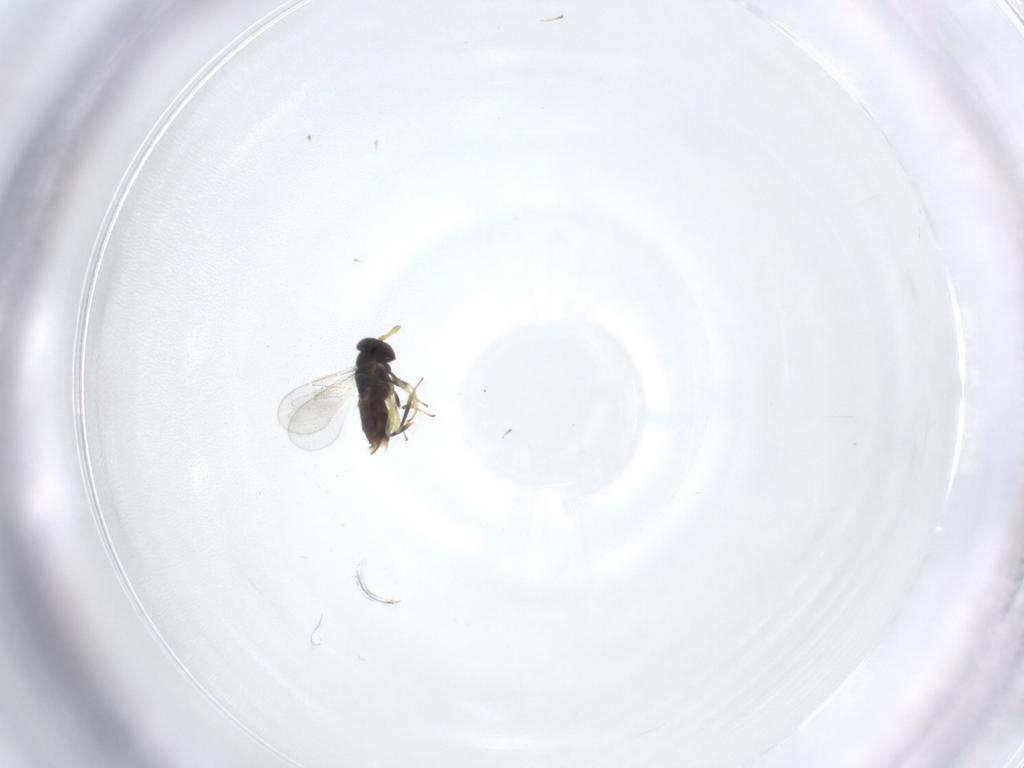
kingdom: Animalia
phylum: Arthropoda
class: Insecta
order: Hymenoptera
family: Aphelinidae
